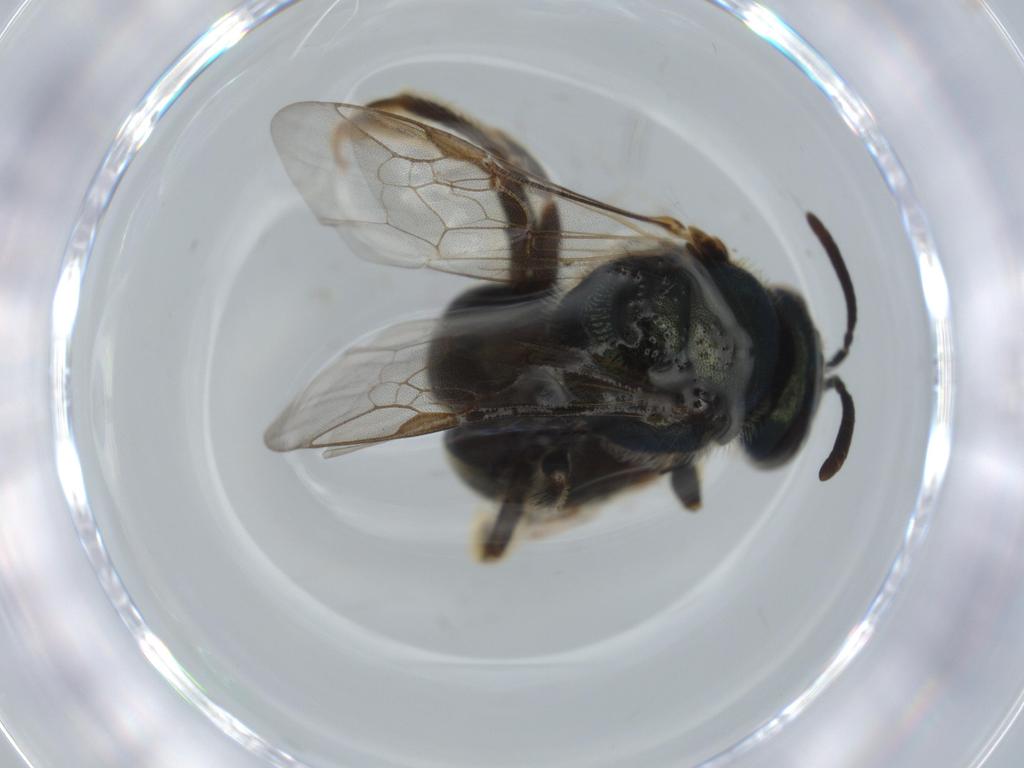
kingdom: Animalia
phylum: Arthropoda
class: Insecta
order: Hymenoptera
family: Halictidae
